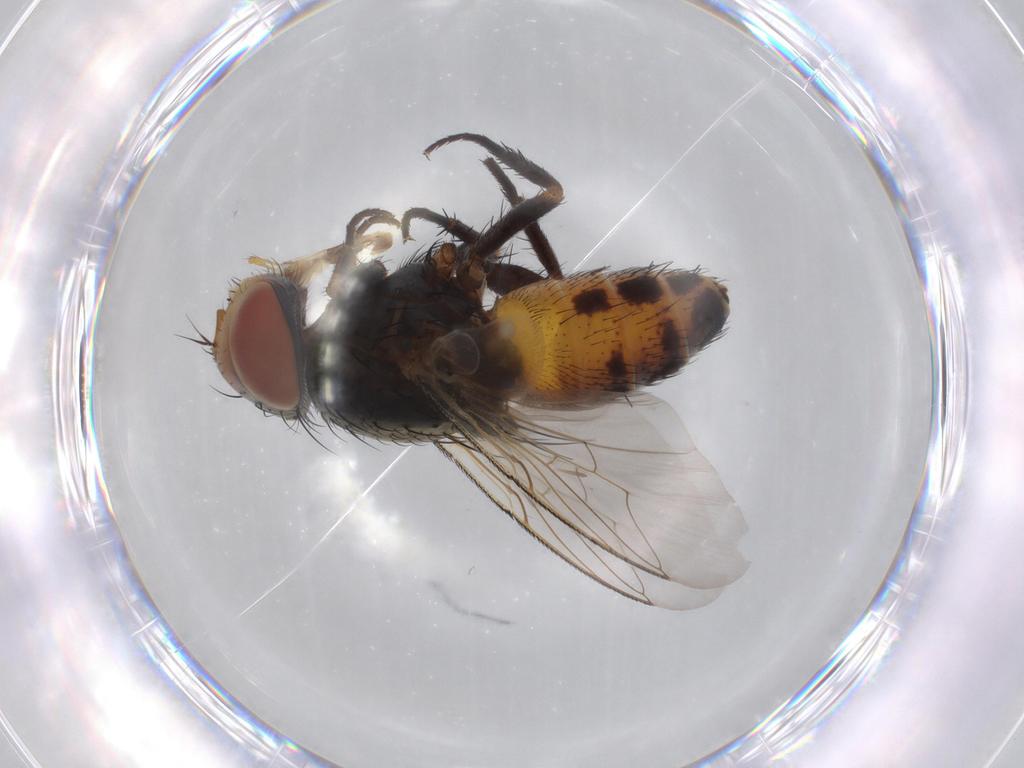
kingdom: Animalia
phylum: Arthropoda
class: Insecta
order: Diptera
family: Sarcophagidae
